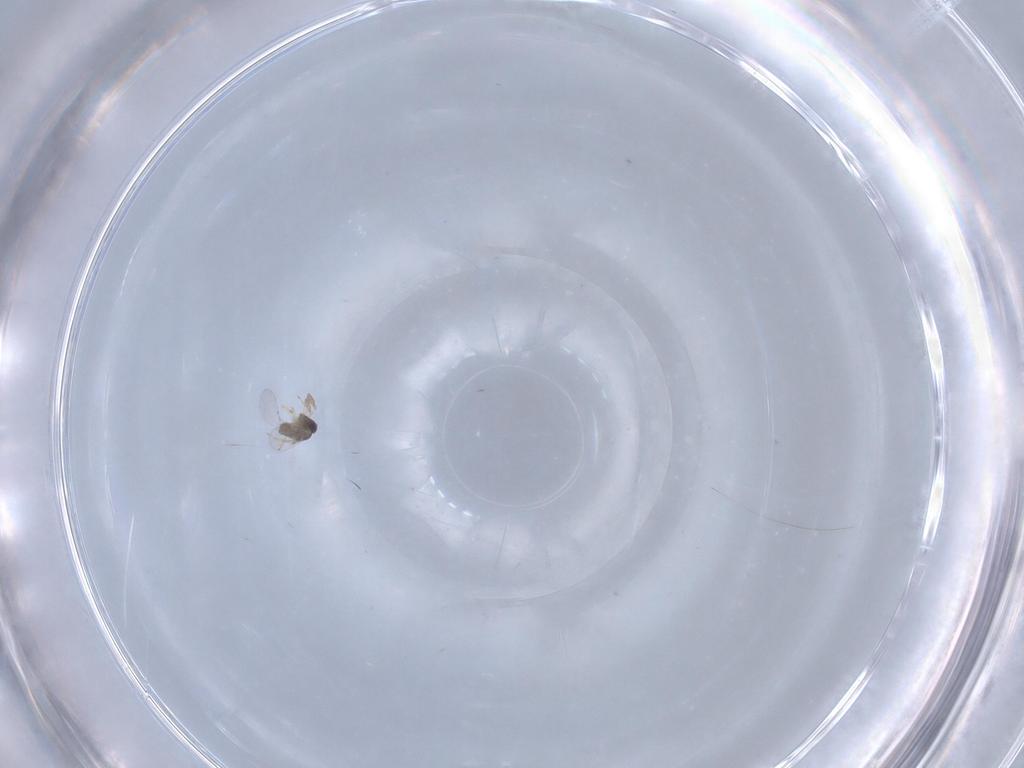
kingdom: Animalia
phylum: Arthropoda
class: Insecta
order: Hymenoptera
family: Encyrtidae
